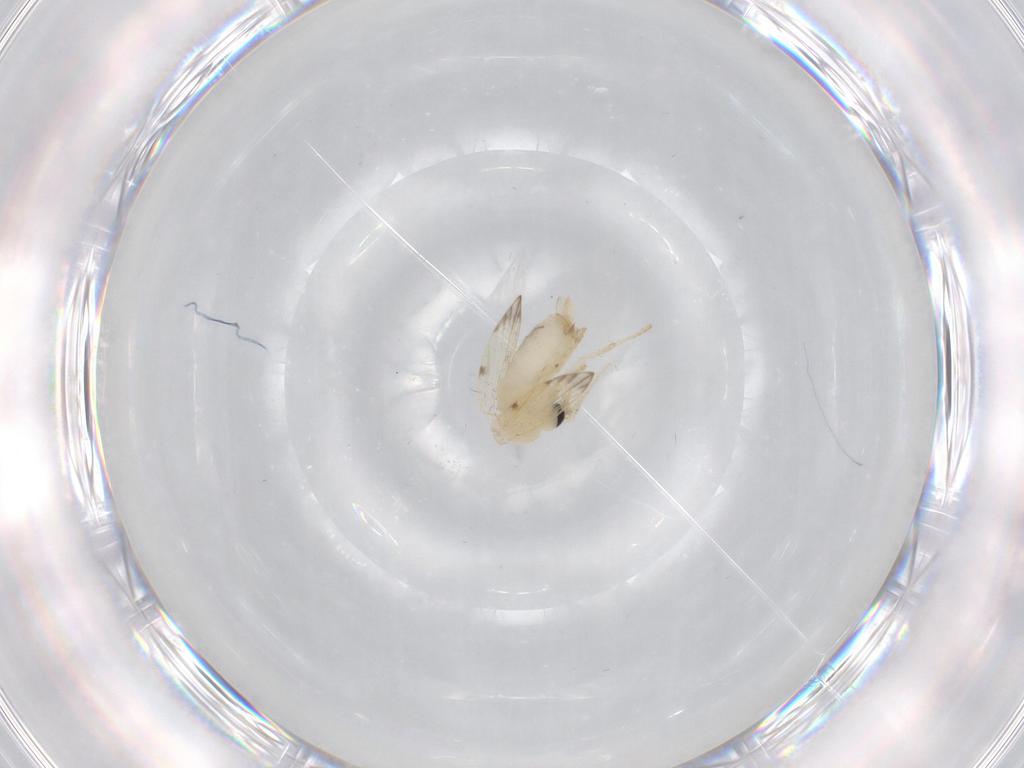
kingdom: Animalia
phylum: Arthropoda
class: Insecta
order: Diptera
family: Psychodidae
